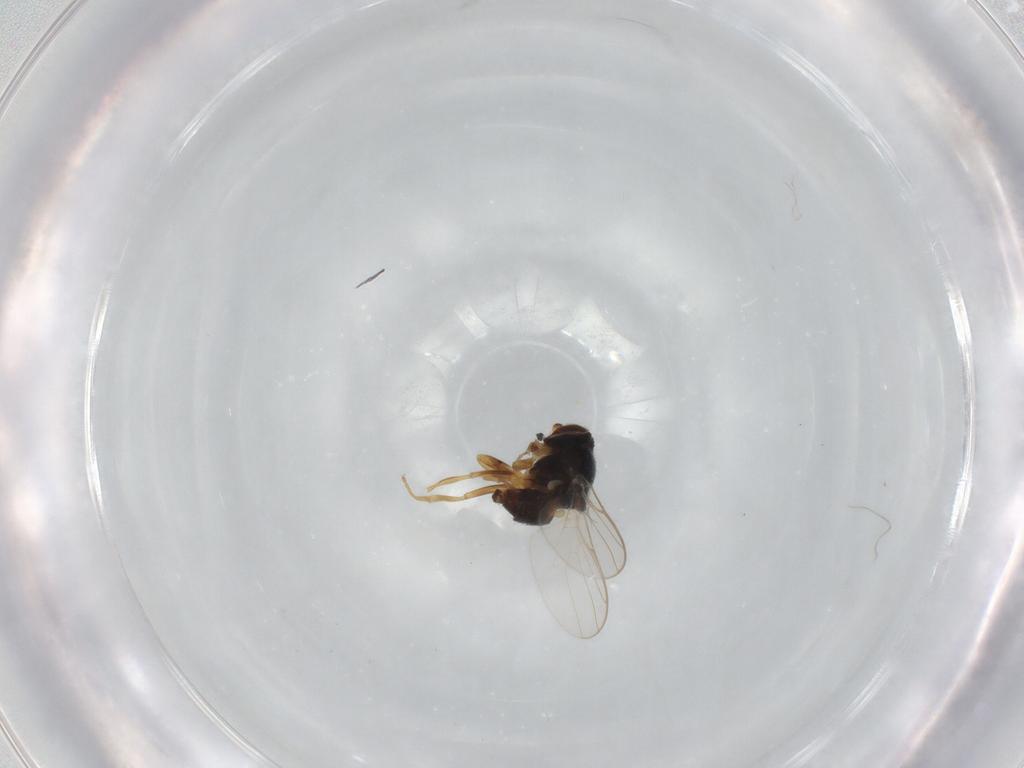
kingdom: Animalia
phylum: Arthropoda
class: Insecta
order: Diptera
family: Chloropidae
